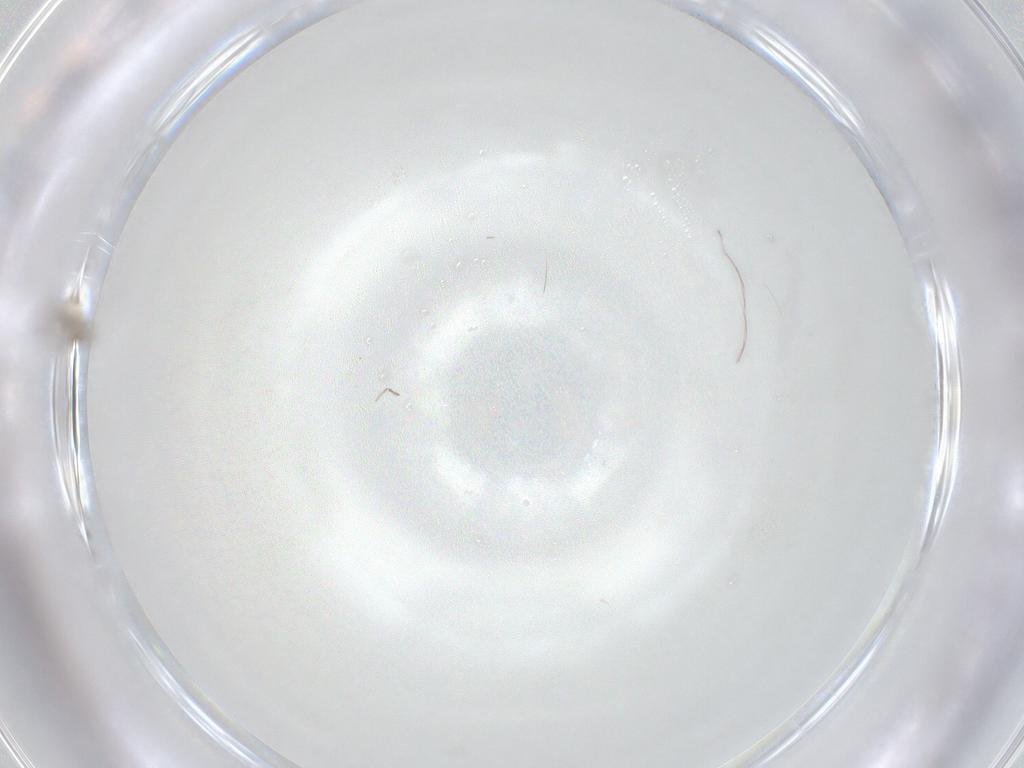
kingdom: Animalia
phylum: Arthropoda
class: Insecta
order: Diptera
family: Cecidomyiidae
